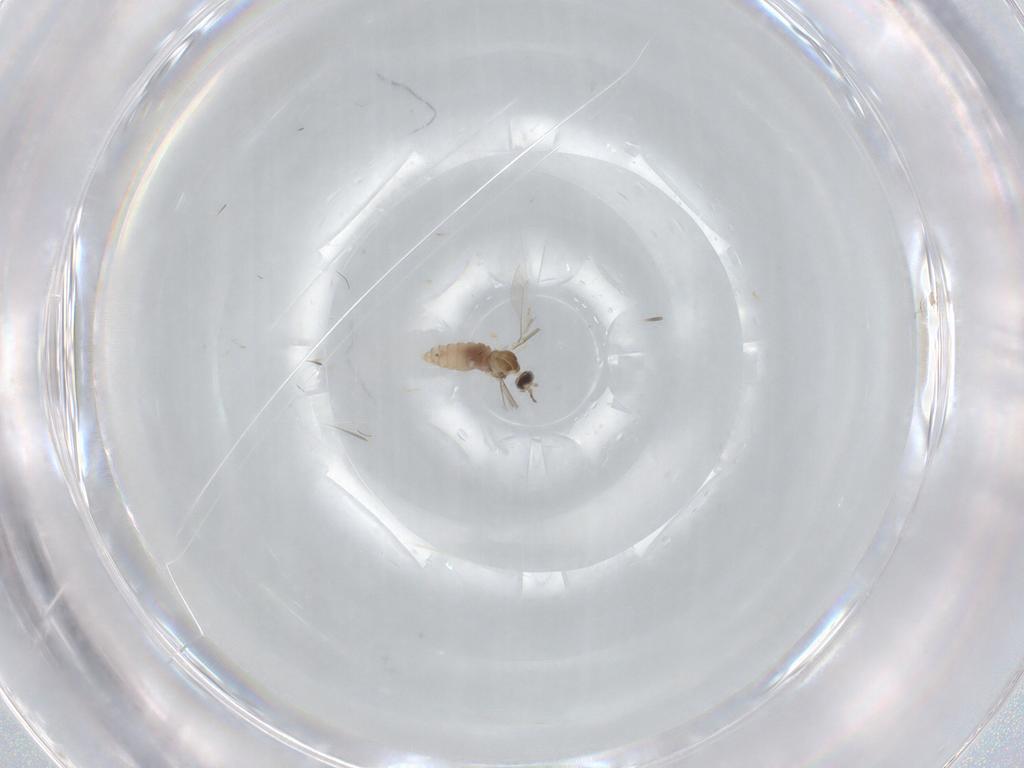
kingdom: Animalia
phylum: Arthropoda
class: Insecta
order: Diptera
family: Cecidomyiidae
